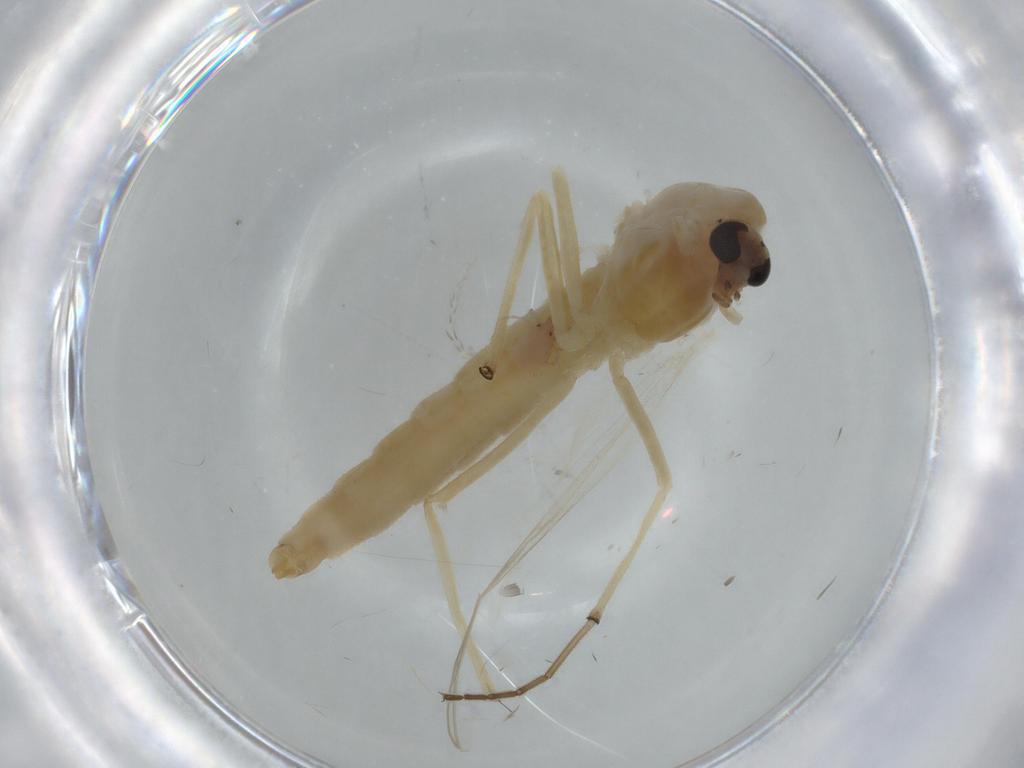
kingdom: Animalia
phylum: Arthropoda
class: Insecta
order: Diptera
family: Chironomidae
